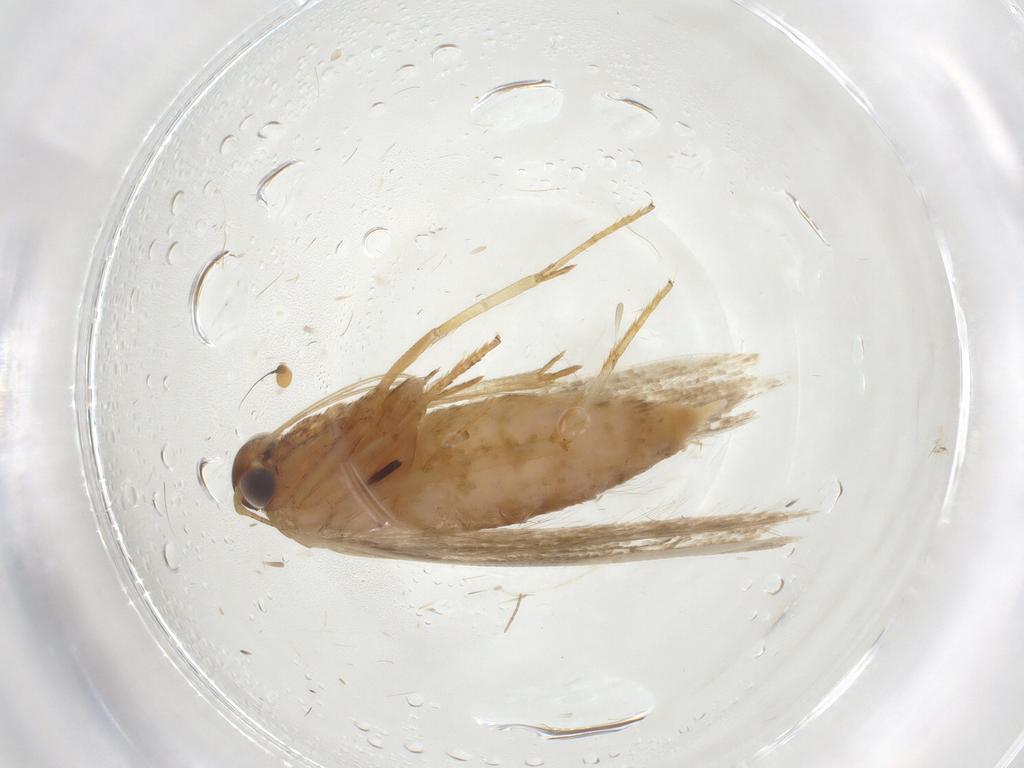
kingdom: Animalia
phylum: Arthropoda
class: Insecta
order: Lepidoptera
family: Blastobasidae
